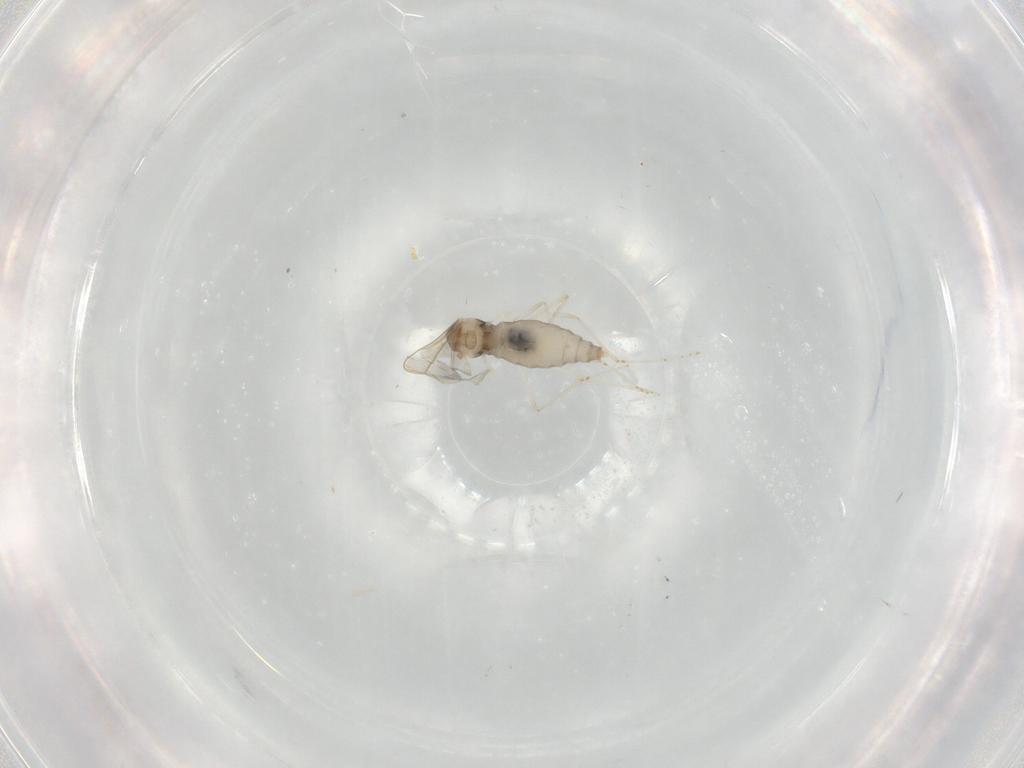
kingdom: Animalia
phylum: Arthropoda
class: Insecta
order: Diptera
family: Cecidomyiidae
